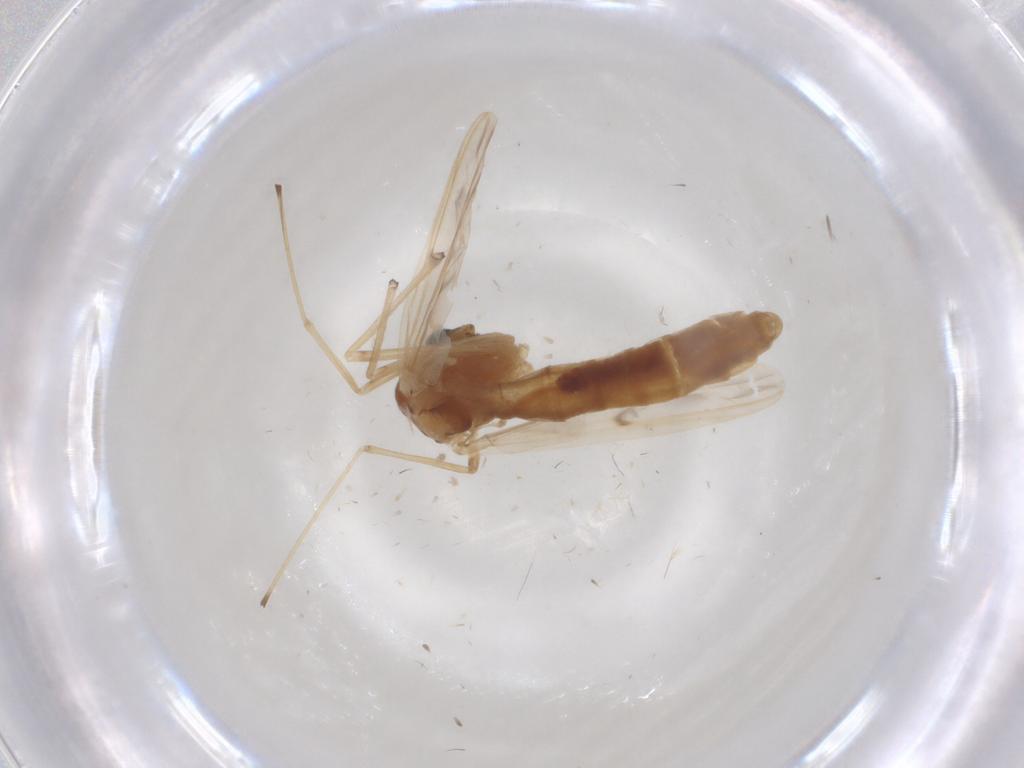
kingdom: Animalia
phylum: Arthropoda
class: Insecta
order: Diptera
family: Chironomidae
